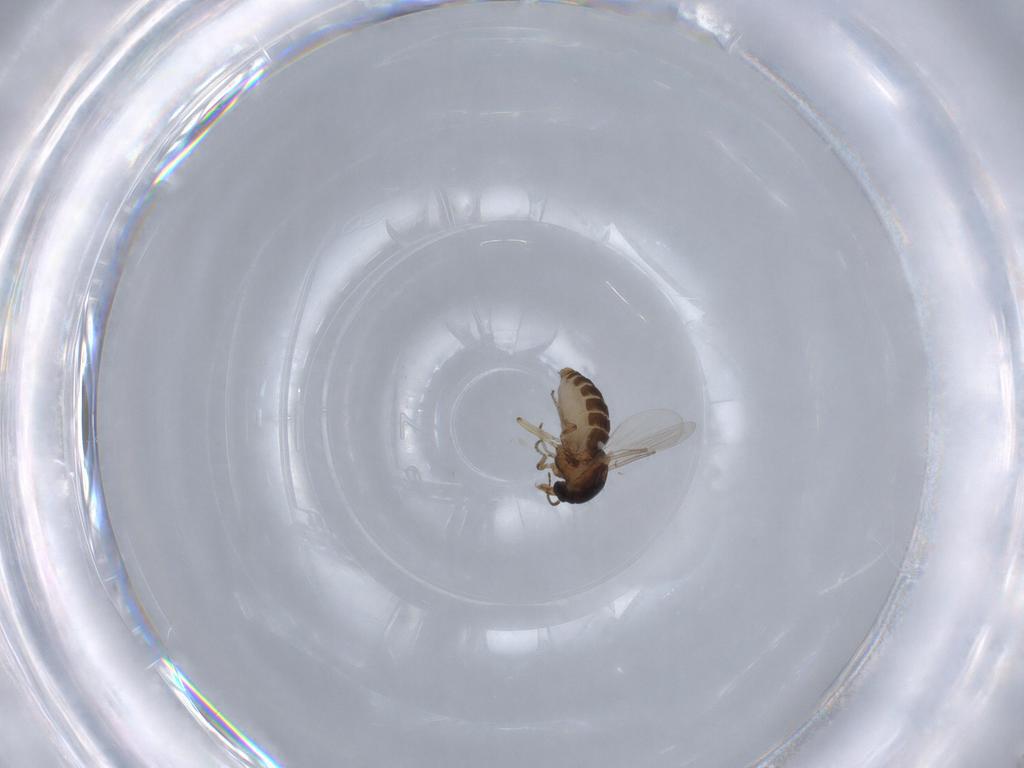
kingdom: Animalia
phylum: Arthropoda
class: Insecta
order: Diptera
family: Ceratopogonidae
